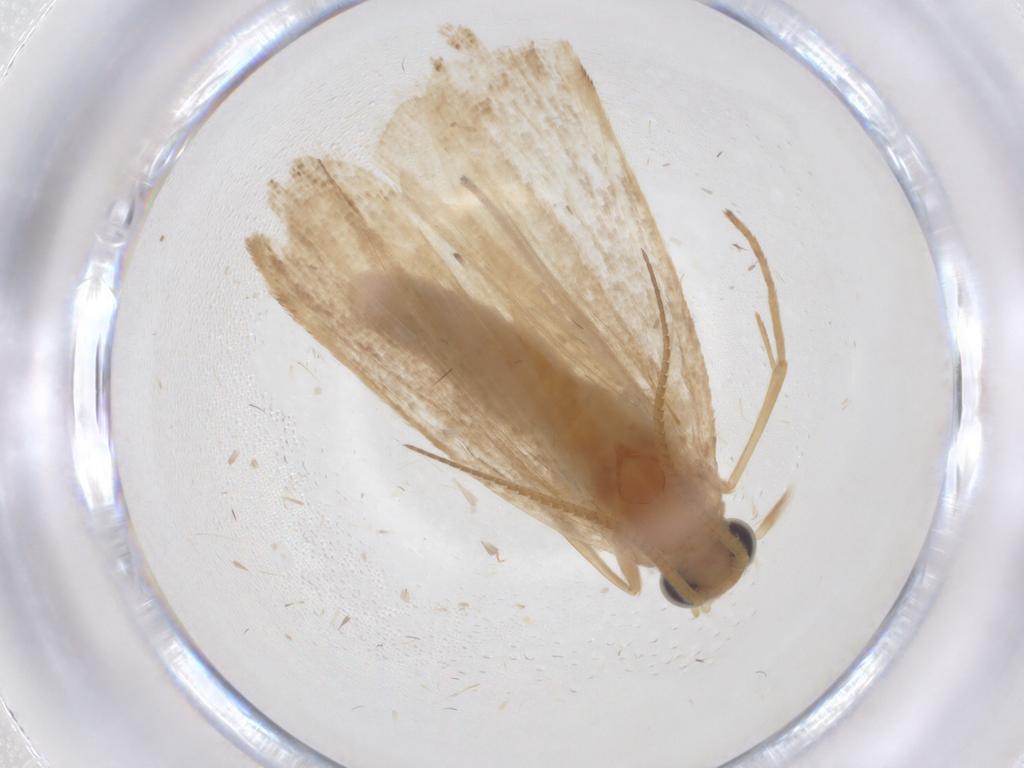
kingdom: Animalia
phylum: Arthropoda
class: Insecta
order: Lepidoptera
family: Pyralidae
